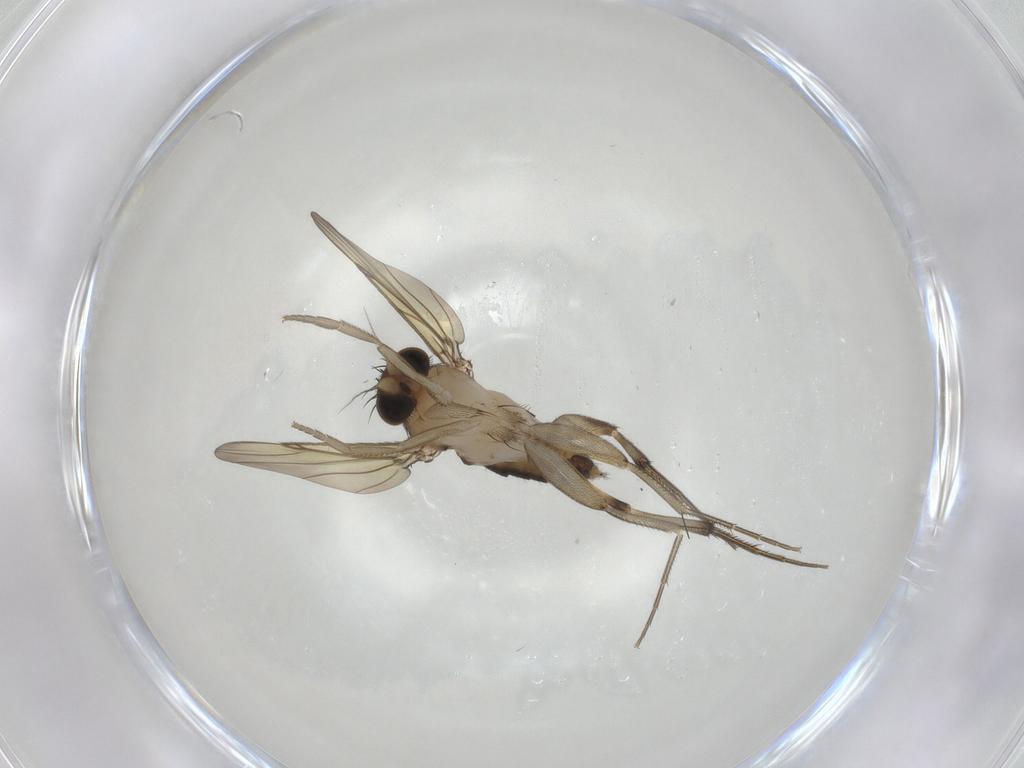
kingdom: Animalia
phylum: Arthropoda
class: Insecta
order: Diptera
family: Phoridae
